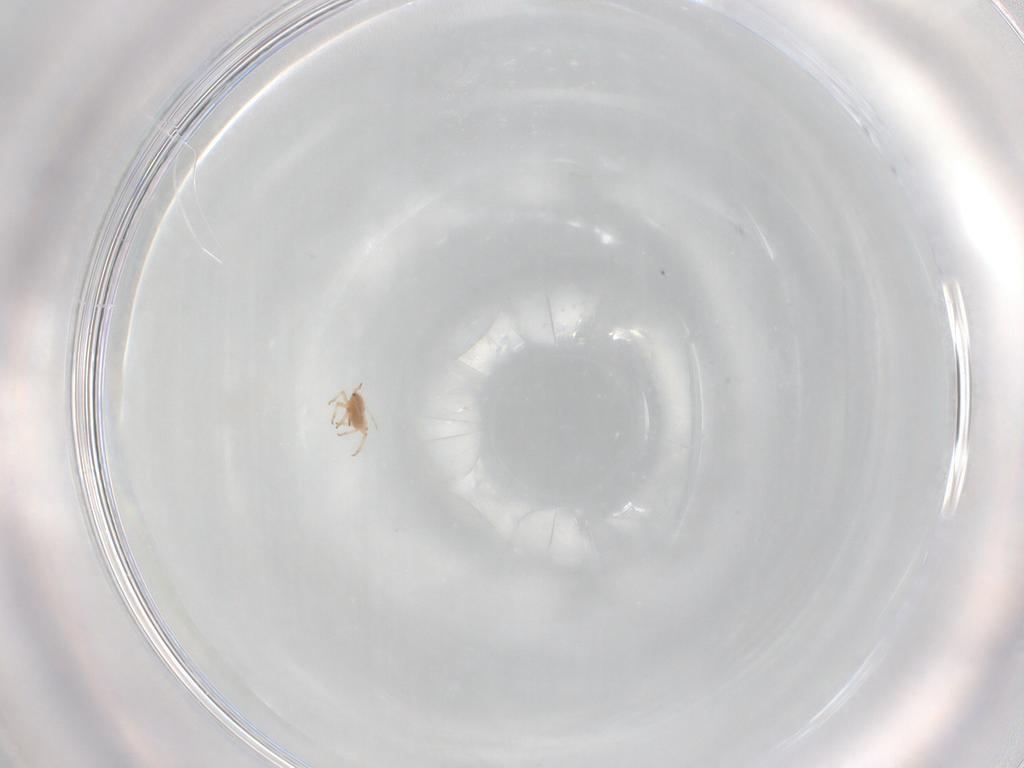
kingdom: Animalia
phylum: Arthropoda
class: Insecta
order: Hemiptera
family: Aphididae
